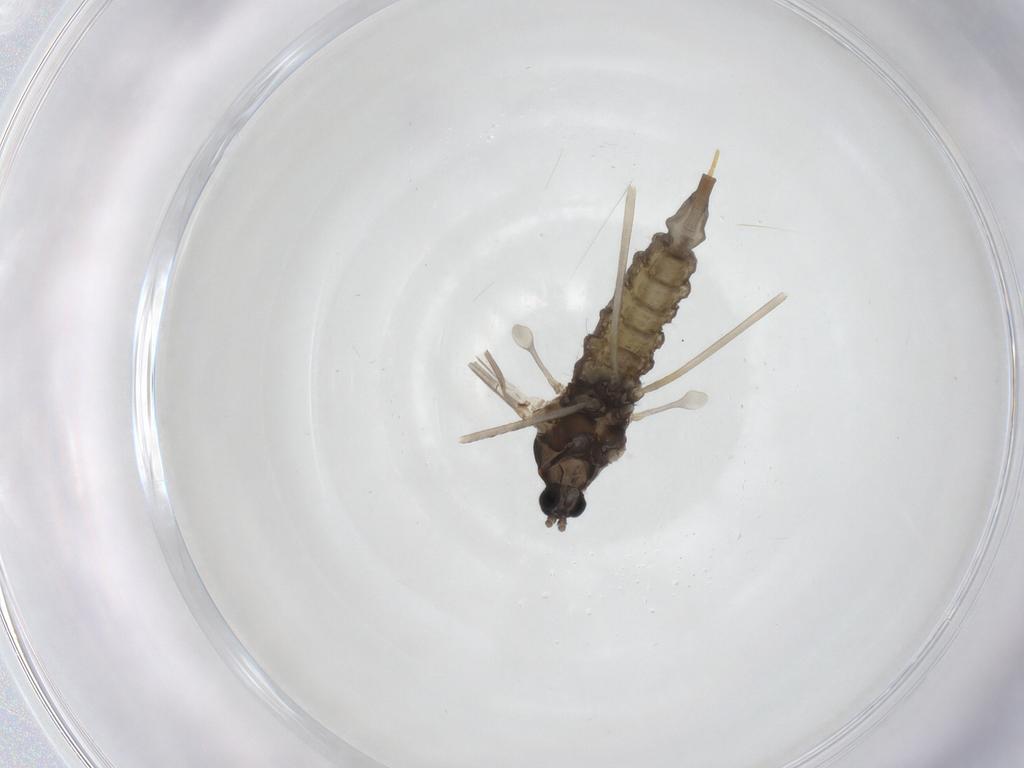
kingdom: Animalia
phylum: Arthropoda
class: Insecta
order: Diptera
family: Cecidomyiidae
